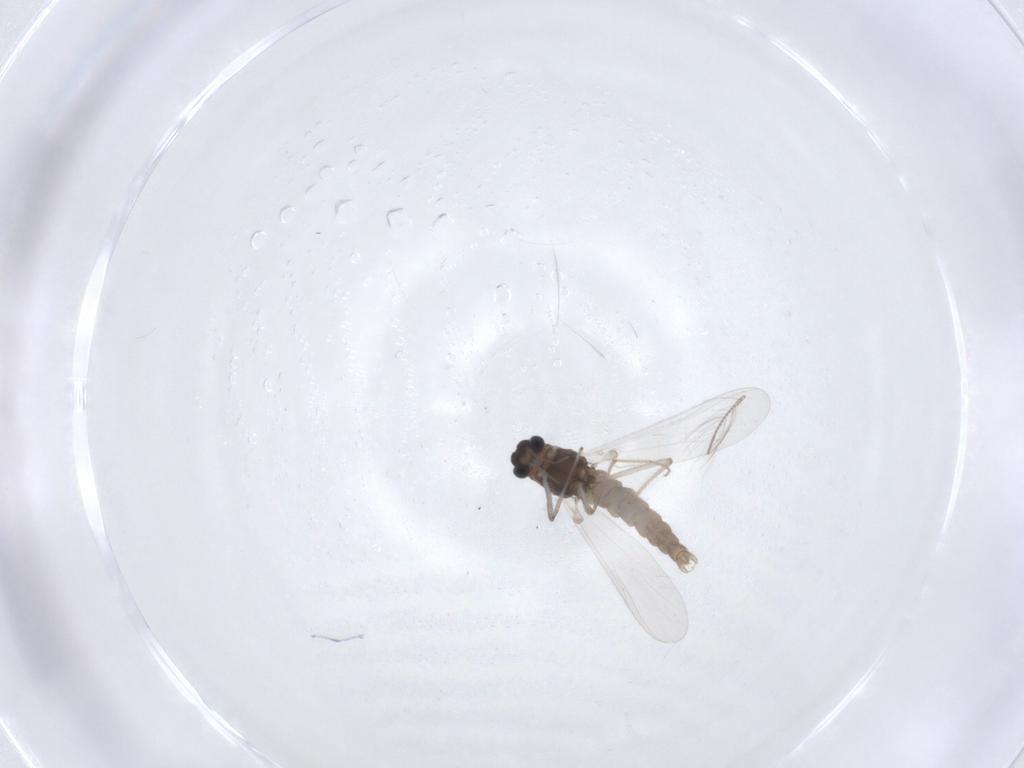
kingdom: Animalia
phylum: Arthropoda
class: Insecta
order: Diptera
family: Chironomidae
